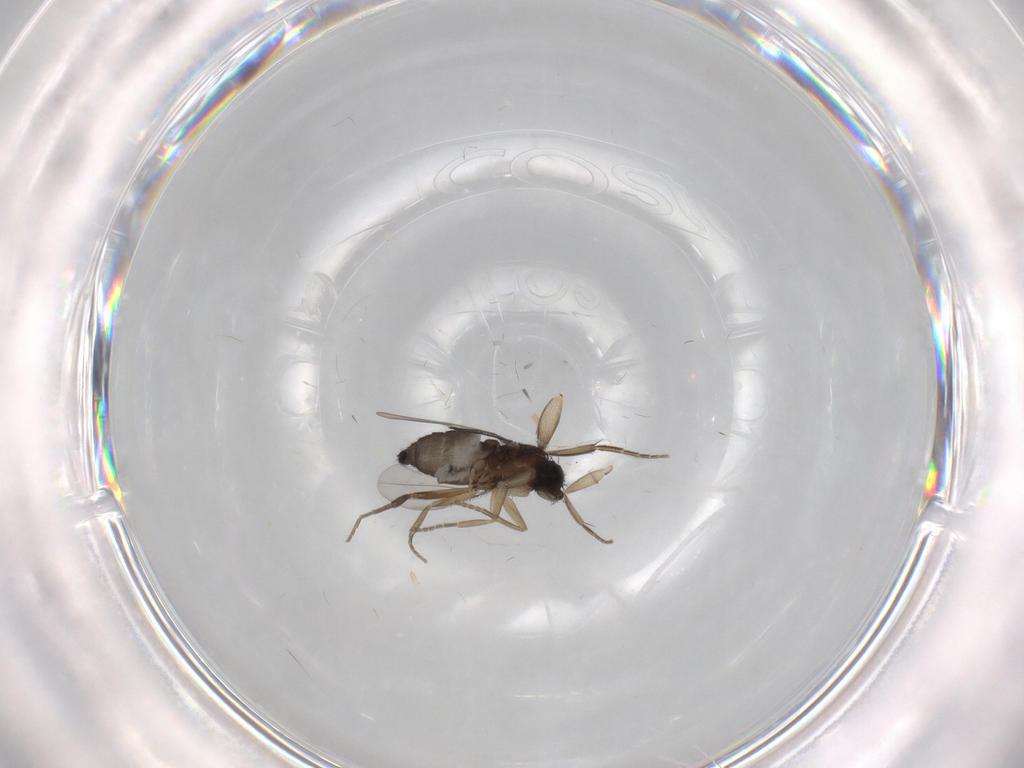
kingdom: Animalia
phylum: Arthropoda
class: Insecta
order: Diptera
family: Phoridae
